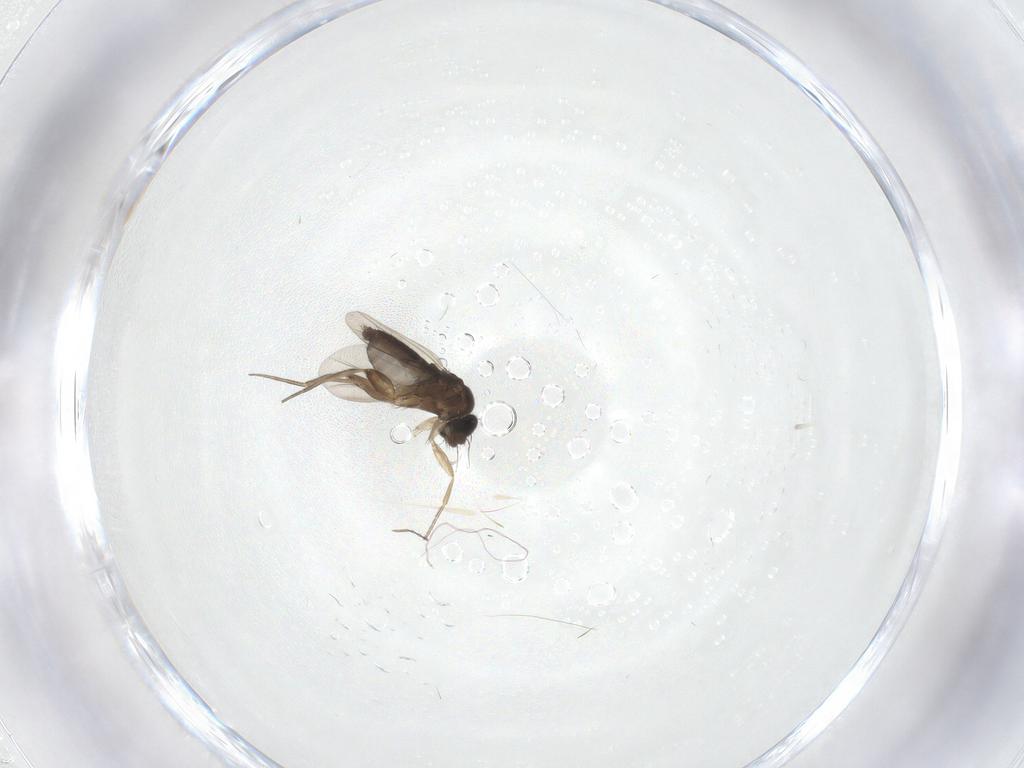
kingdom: Animalia
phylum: Arthropoda
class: Insecta
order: Diptera
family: Phoridae
